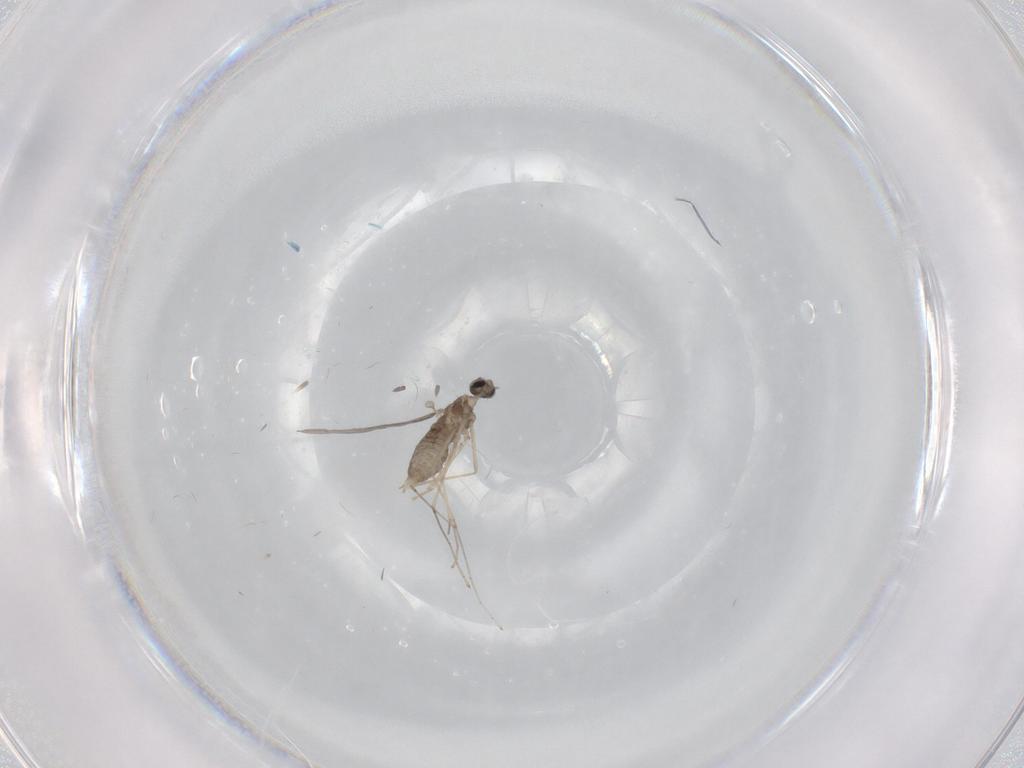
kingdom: Animalia
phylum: Arthropoda
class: Insecta
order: Diptera
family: Cecidomyiidae
